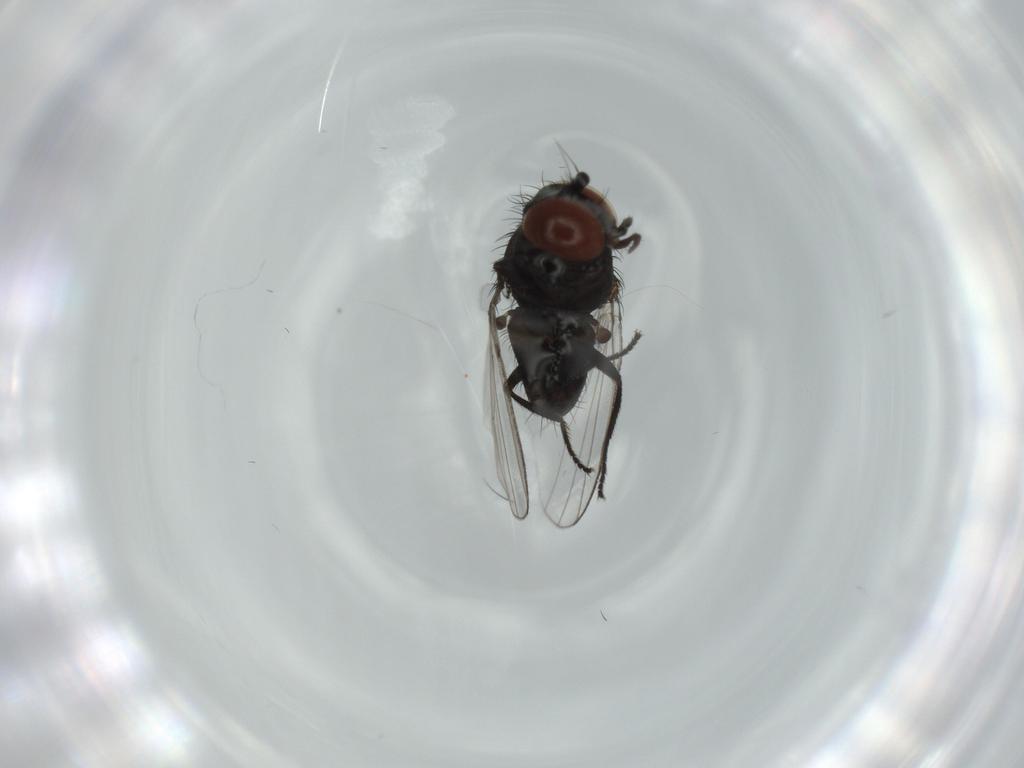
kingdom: Animalia
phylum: Arthropoda
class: Insecta
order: Diptera
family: Milichiidae
